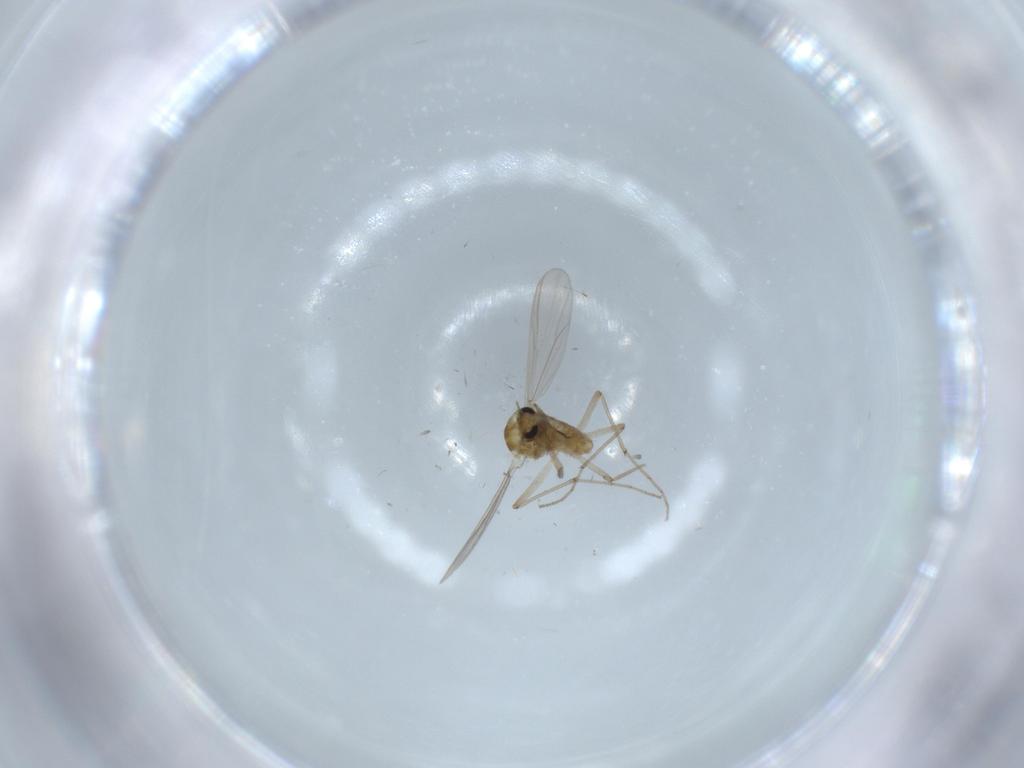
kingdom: Animalia
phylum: Arthropoda
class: Insecta
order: Diptera
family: Chironomidae
